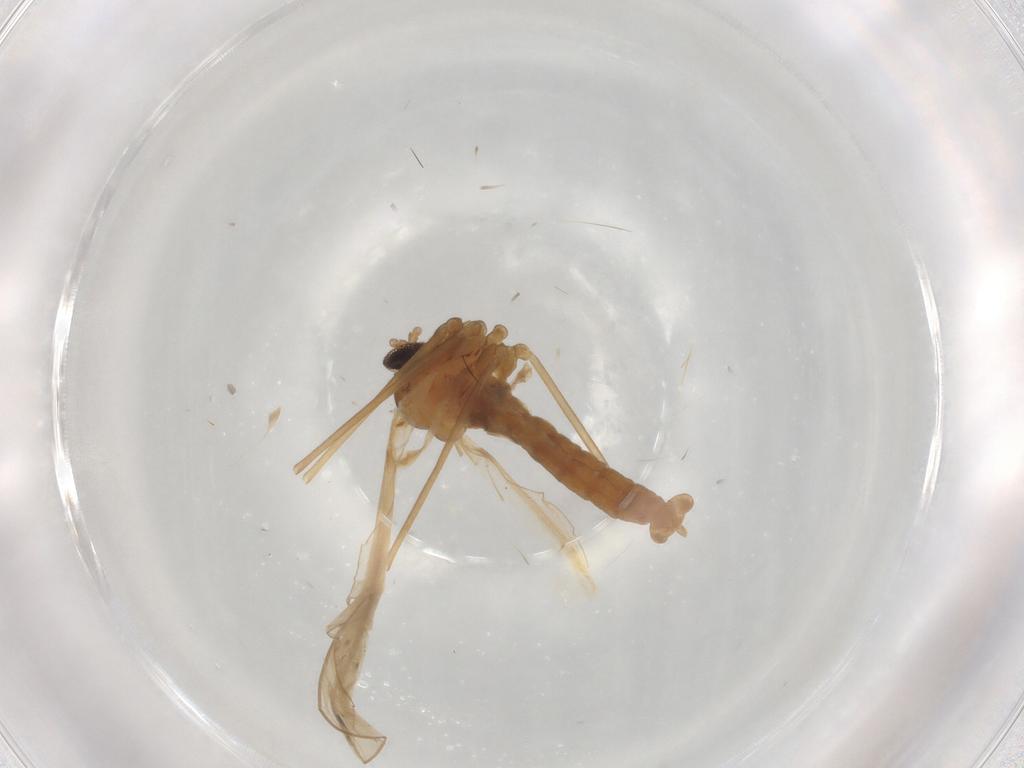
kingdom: Animalia
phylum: Arthropoda
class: Insecta
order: Diptera
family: Cecidomyiidae
